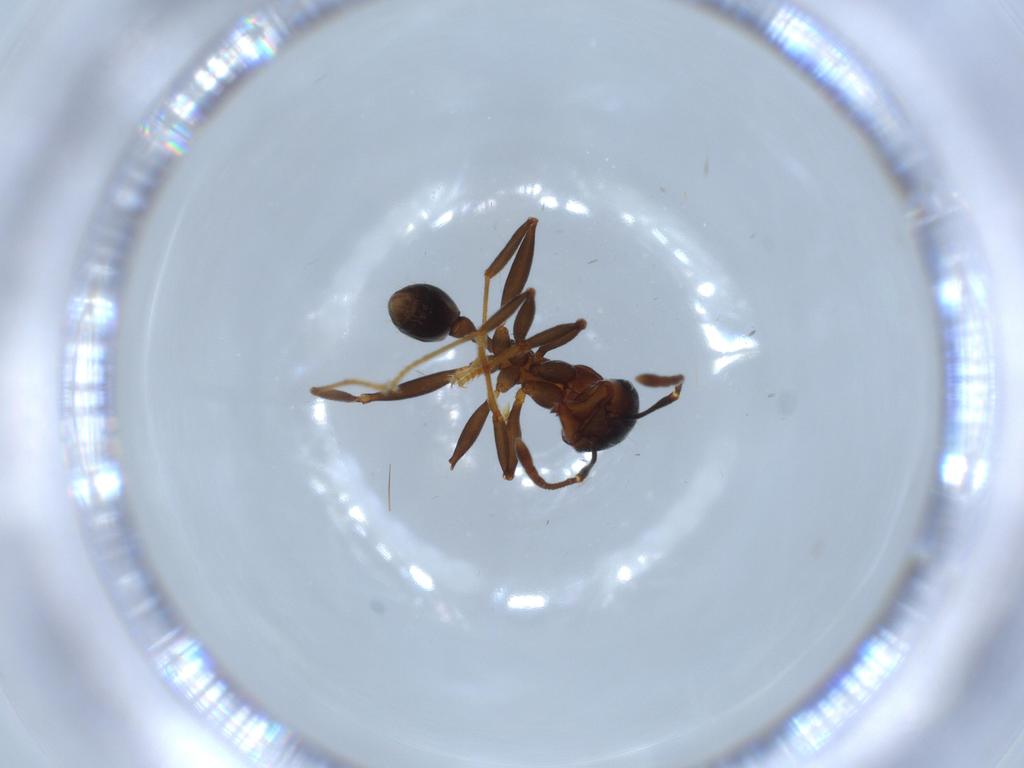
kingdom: Animalia
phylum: Arthropoda
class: Insecta
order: Hymenoptera
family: Formicidae
